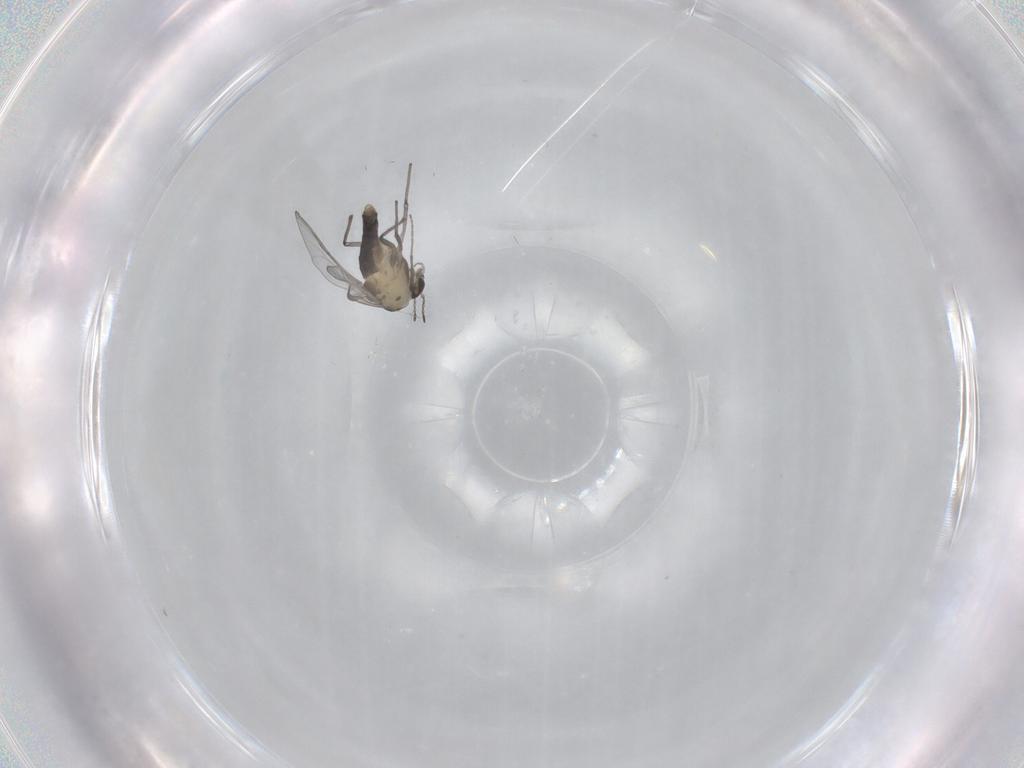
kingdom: Animalia
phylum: Arthropoda
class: Insecta
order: Diptera
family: Chironomidae
